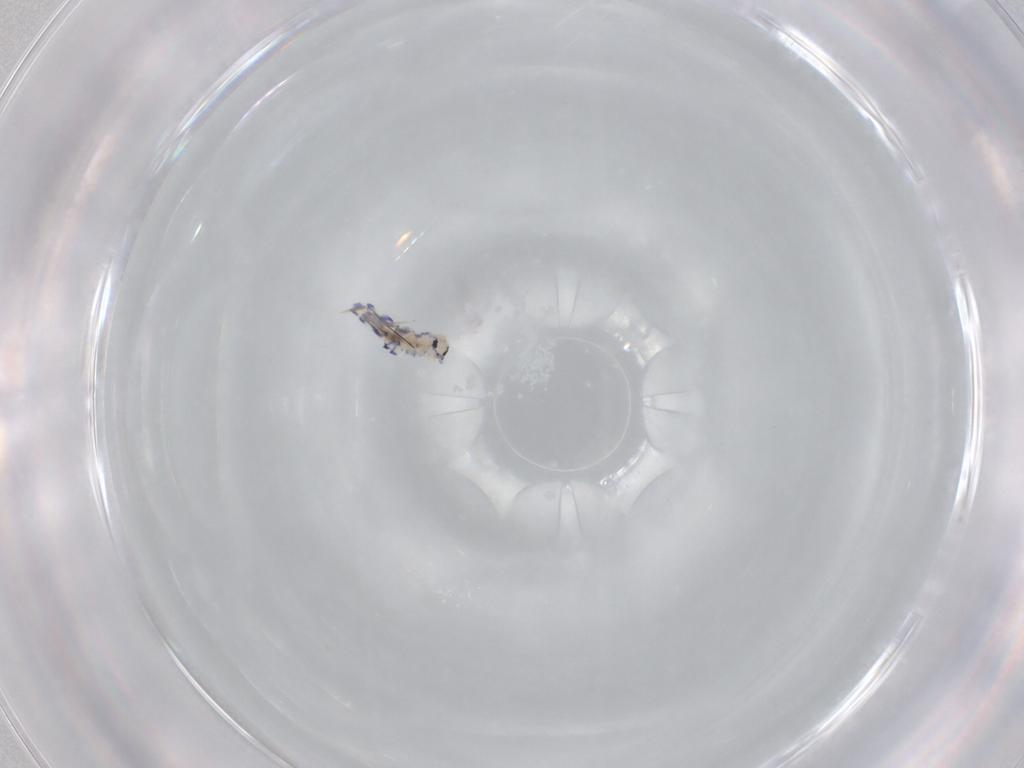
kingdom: Animalia
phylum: Arthropoda
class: Collembola
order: Entomobryomorpha
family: Entomobryidae
